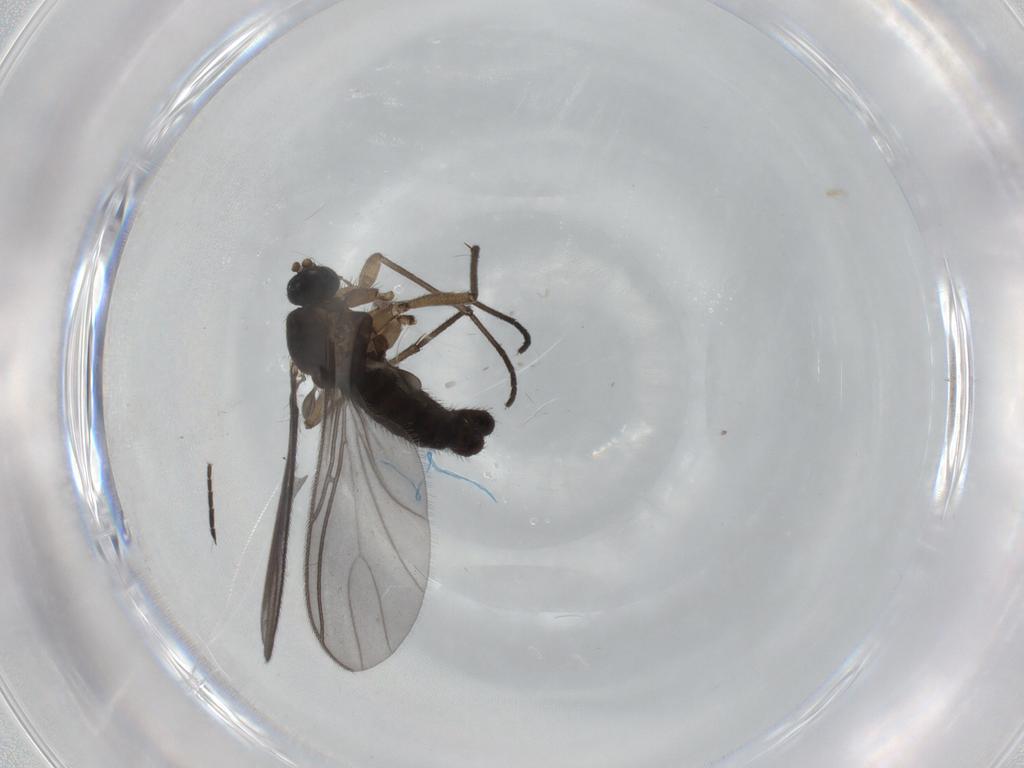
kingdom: Animalia
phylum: Arthropoda
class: Insecta
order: Diptera
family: Sciaridae
